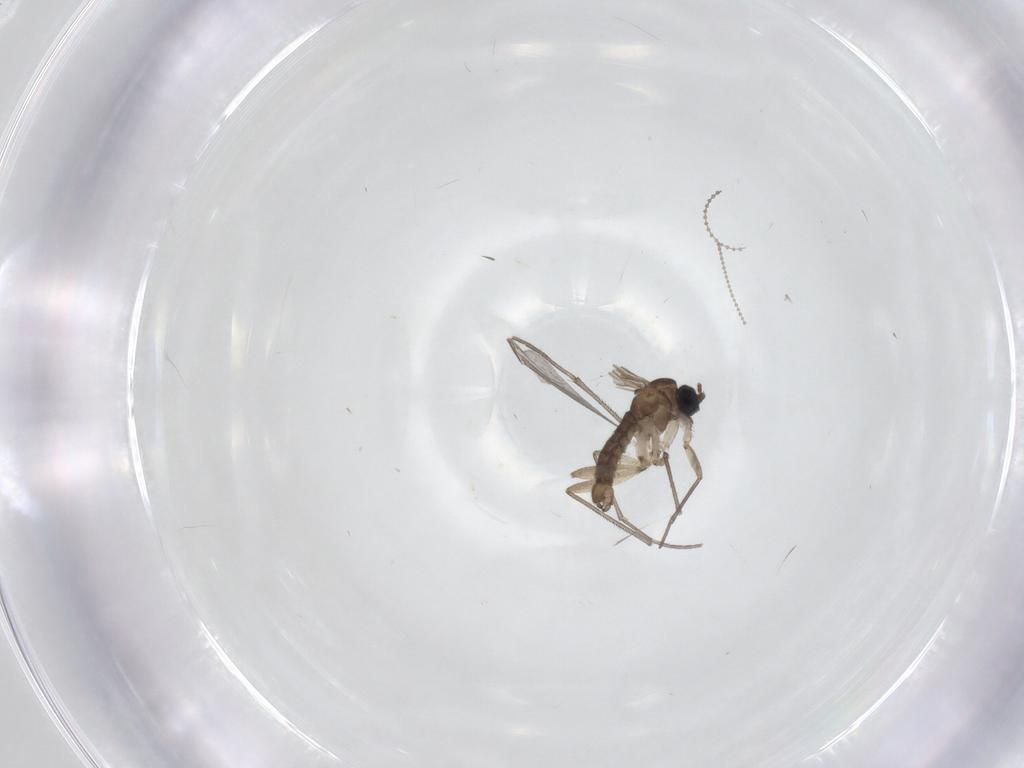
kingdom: Animalia
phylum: Arthropoda
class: Insecta
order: Diptera
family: Sciaridae
